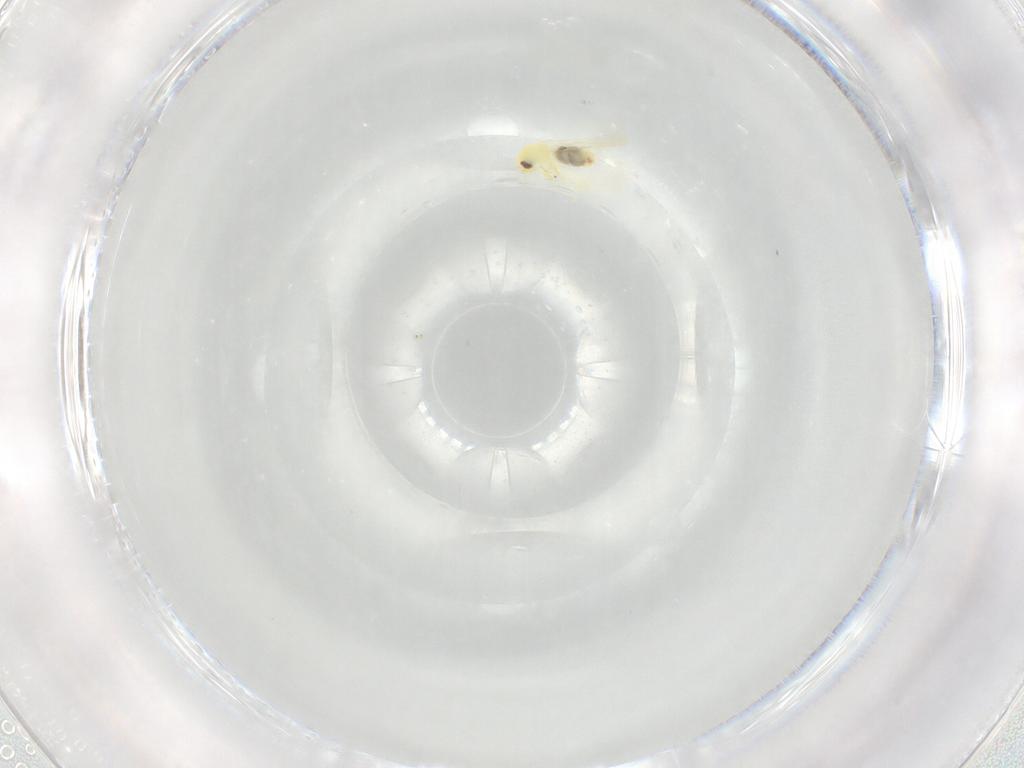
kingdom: Animalia
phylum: Arthropoda
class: Insecta
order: Hemiptera
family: Aleyrodidae
